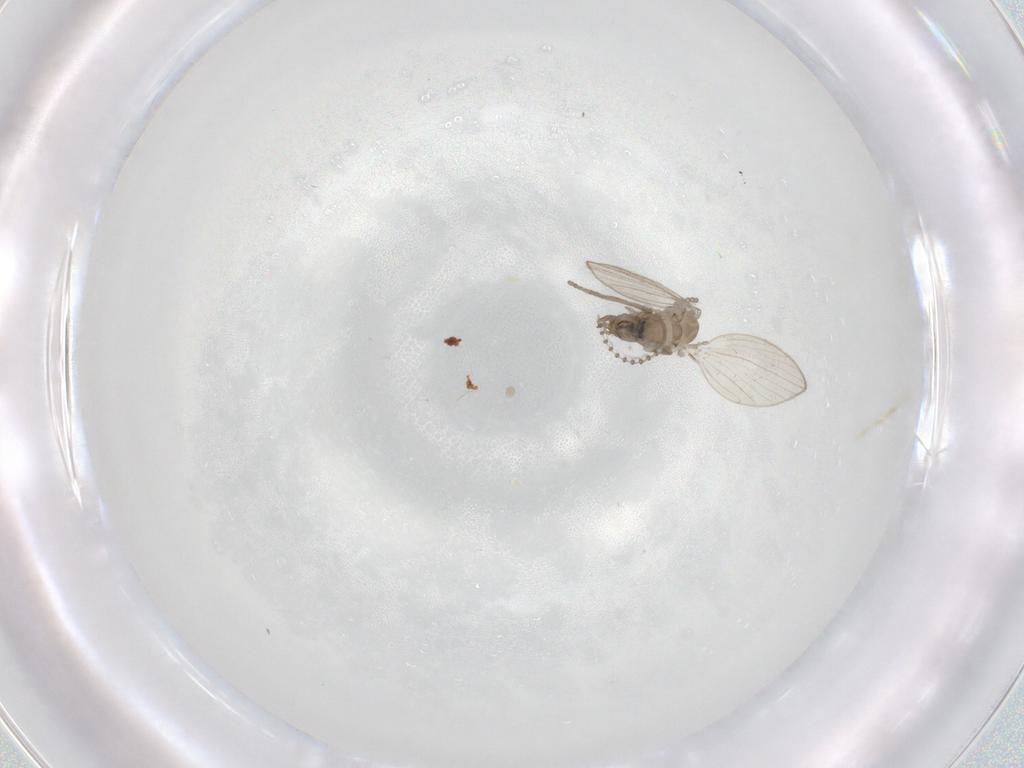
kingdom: Animalia
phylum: Arthropoda
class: Insecta
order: Diptera
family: Psychodidae
